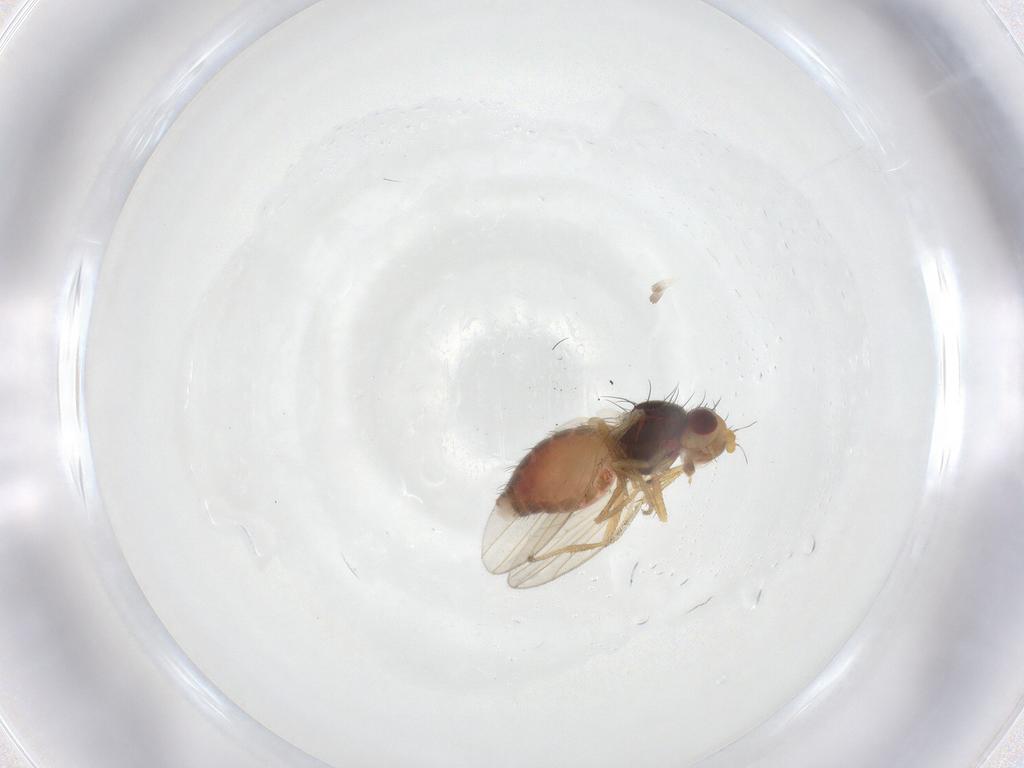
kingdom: Animalia
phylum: Arthropoda
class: Insecta
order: Diptera
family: Heleomyzidae
